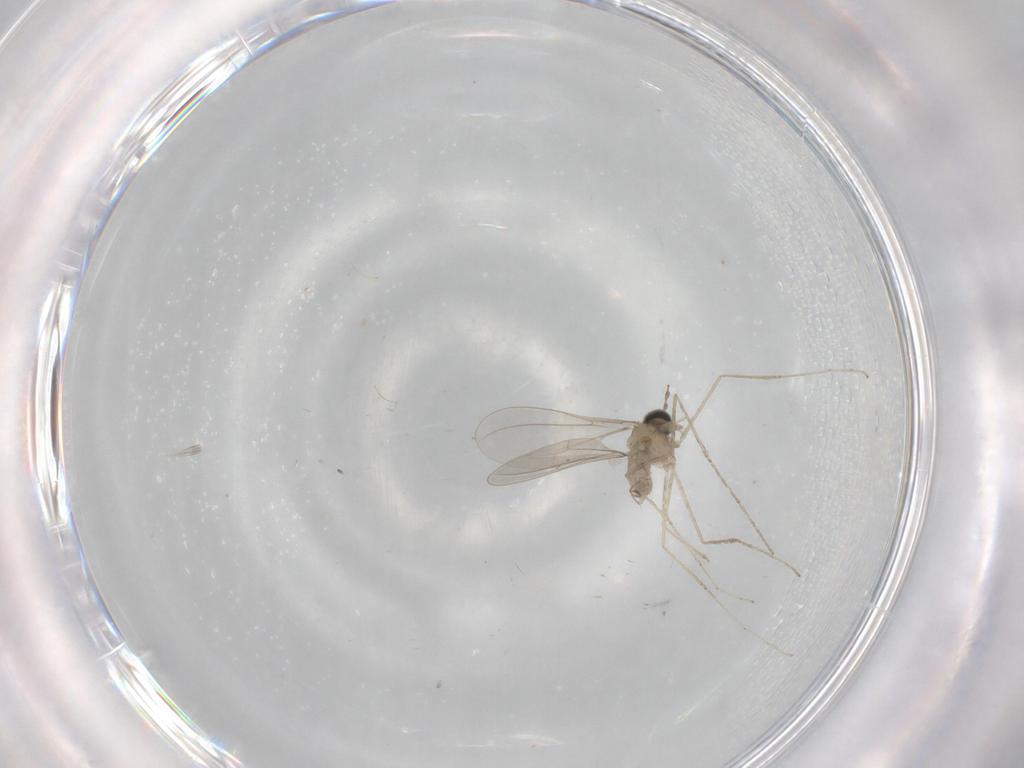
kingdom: Animalia
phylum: Arthropoda
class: Insecta
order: Diptera
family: Cecidomyiidae
